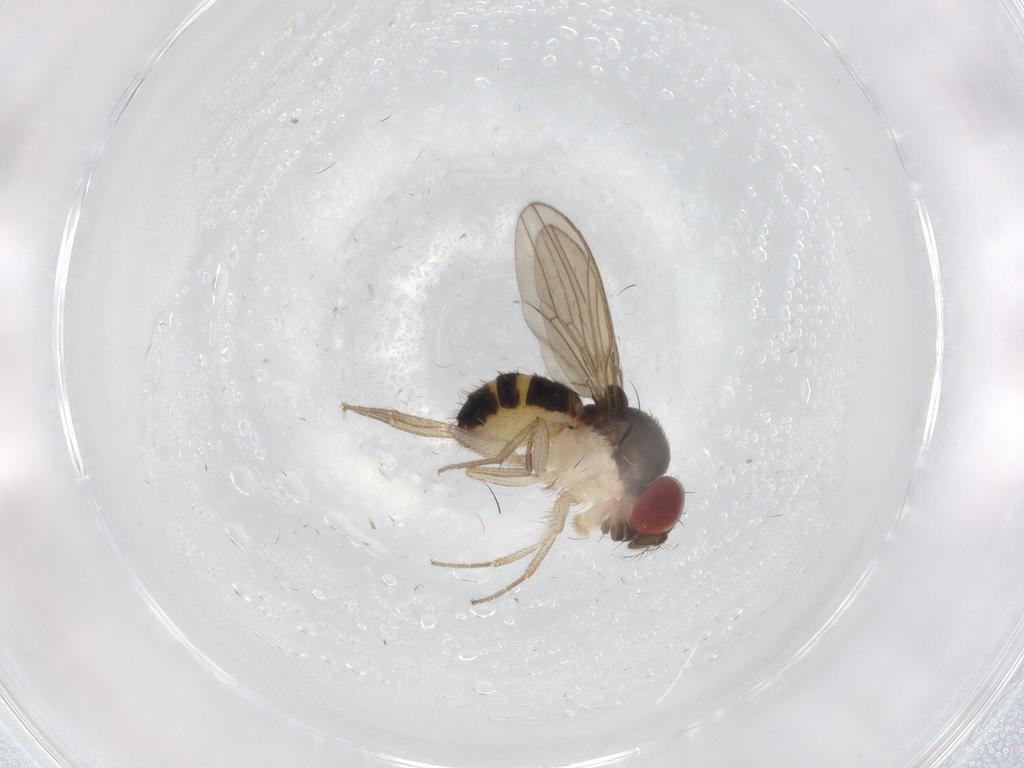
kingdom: Animalia
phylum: Arthropoda
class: Insecta
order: Diptera
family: Drosophilidae
